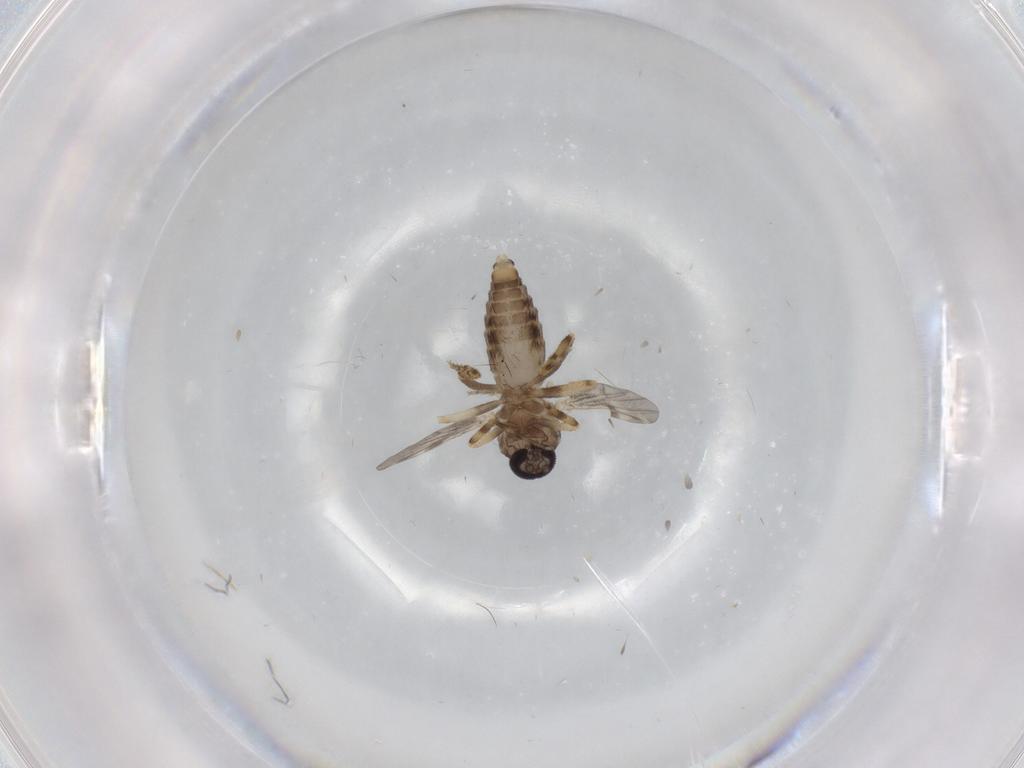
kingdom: Animalia
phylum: Arthropoda
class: Insecta
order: Diptera
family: Ceratopogonidae
